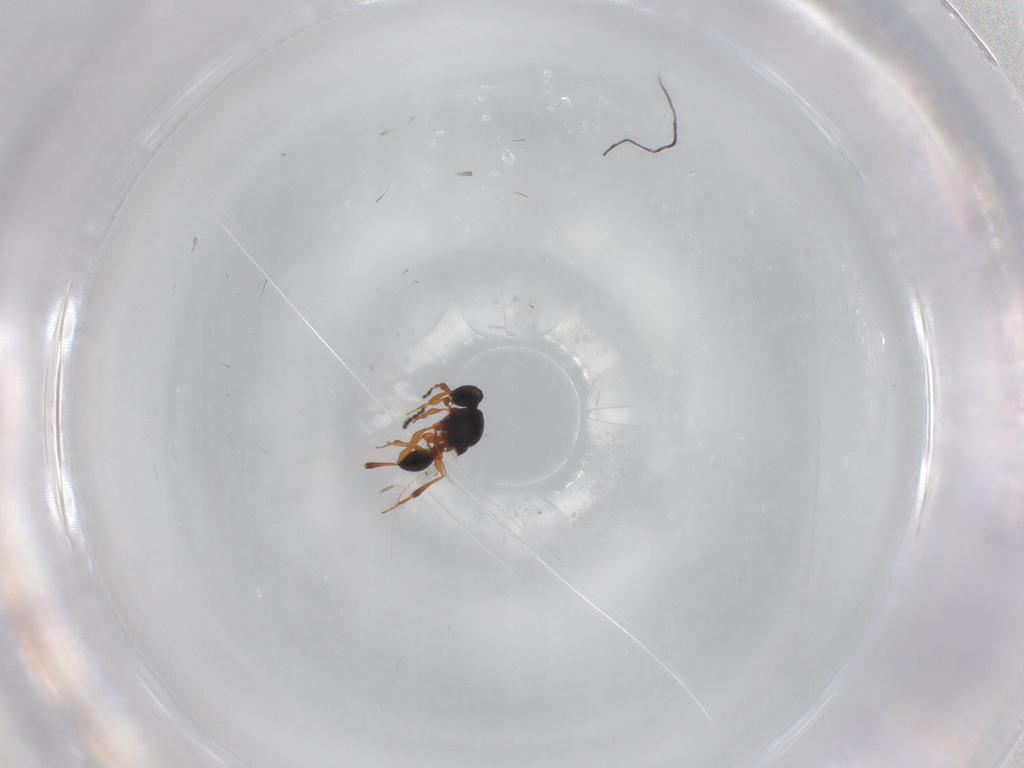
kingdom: Animalia
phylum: Arthropoda
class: Insecta
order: Hymenoptera
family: Platygastridae
